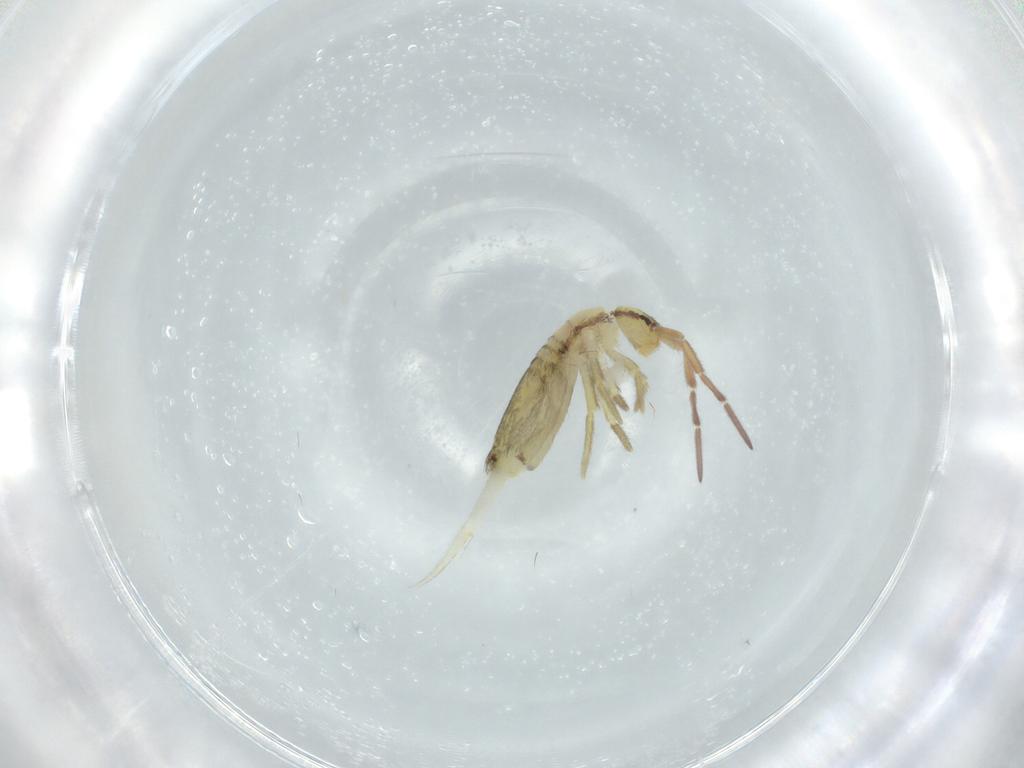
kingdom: Animalia
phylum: Arthropoda
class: Collembola
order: Entomobryomorpha
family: Entomobryidae
